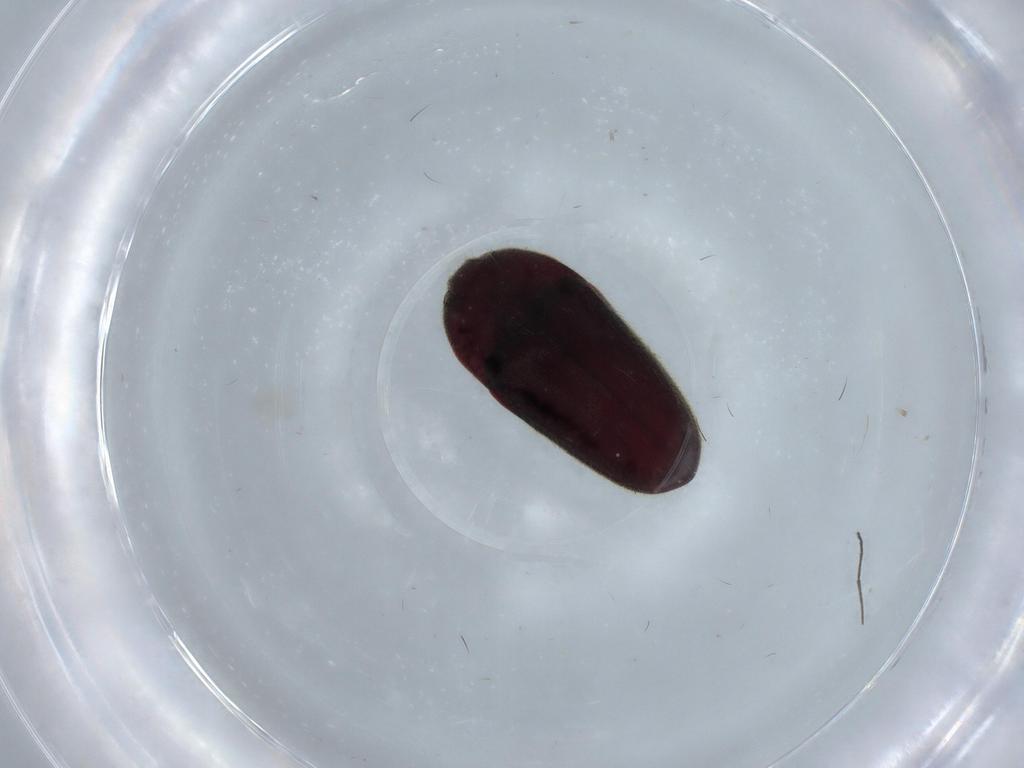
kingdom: Animalia
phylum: Arthropoda
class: Insecta
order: Coleoptera
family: Throscidae
